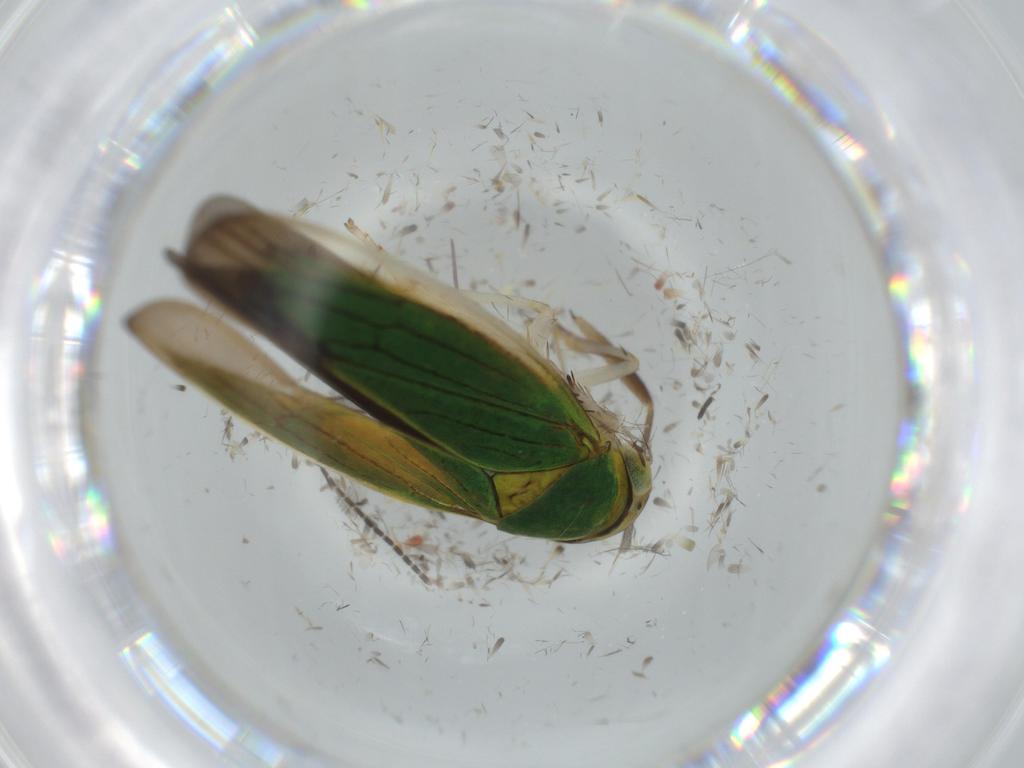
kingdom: Animalia
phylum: Arthropoda
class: Insecta
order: Hemiptera
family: Cicadellidae
